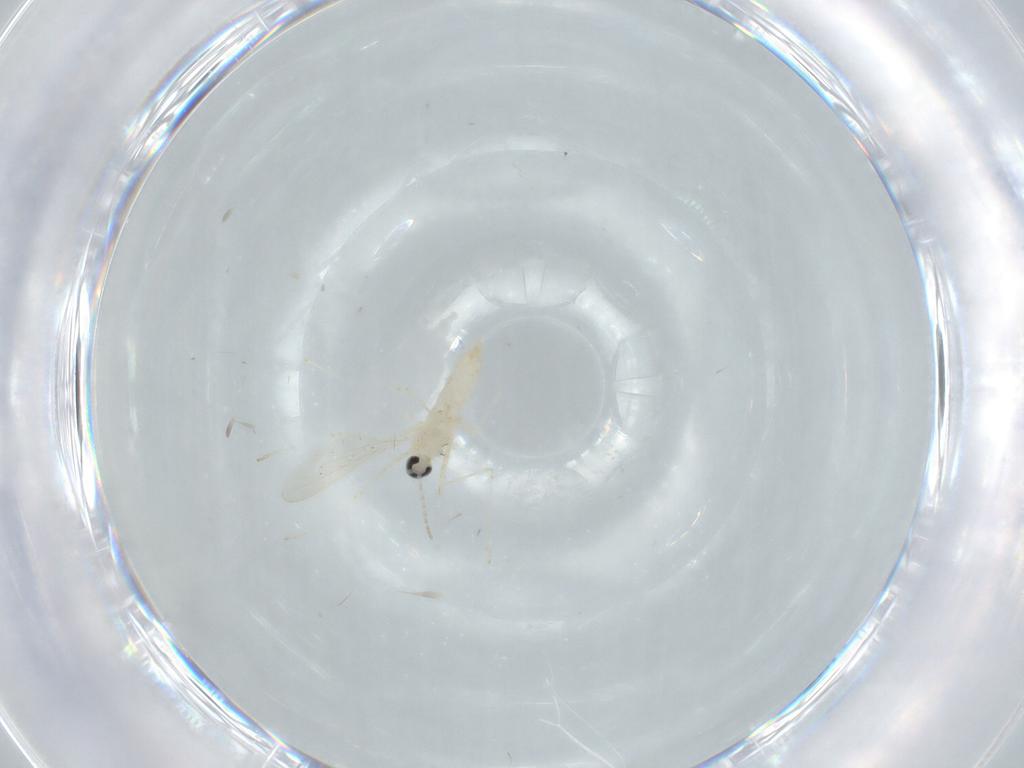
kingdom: Animalia
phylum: Arthropoda
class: Insecta
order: Diptera
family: Cecidomyiidae
